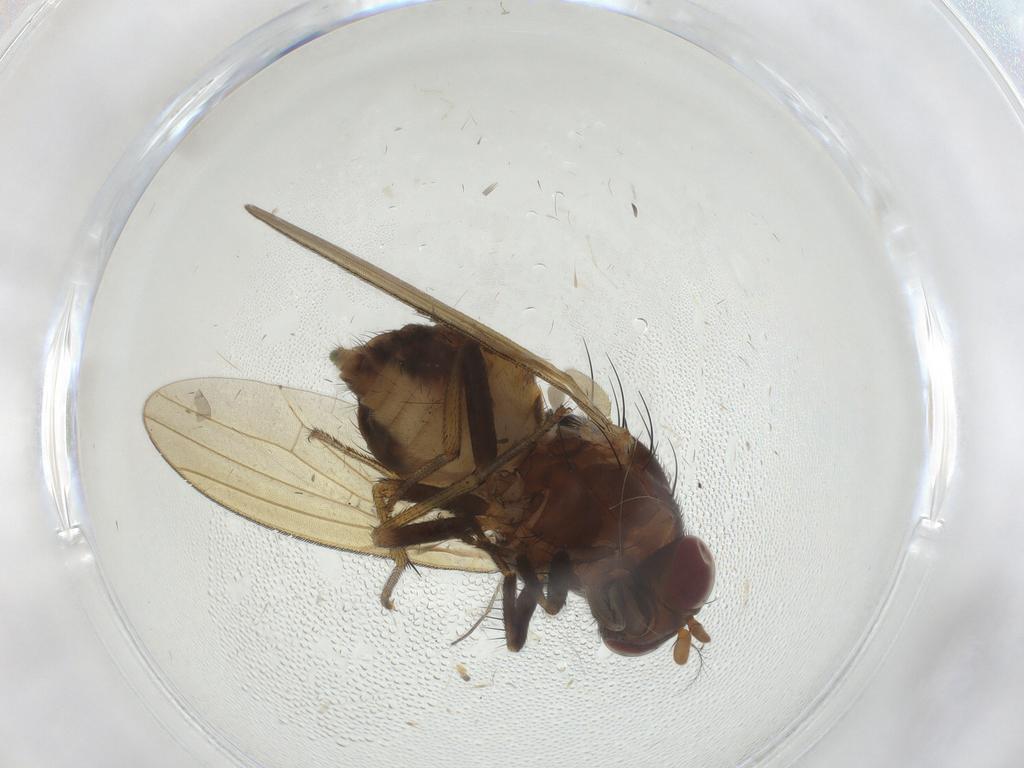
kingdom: Animalia
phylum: Arthropoda
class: Insecta
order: Diptera
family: Sciaridae
